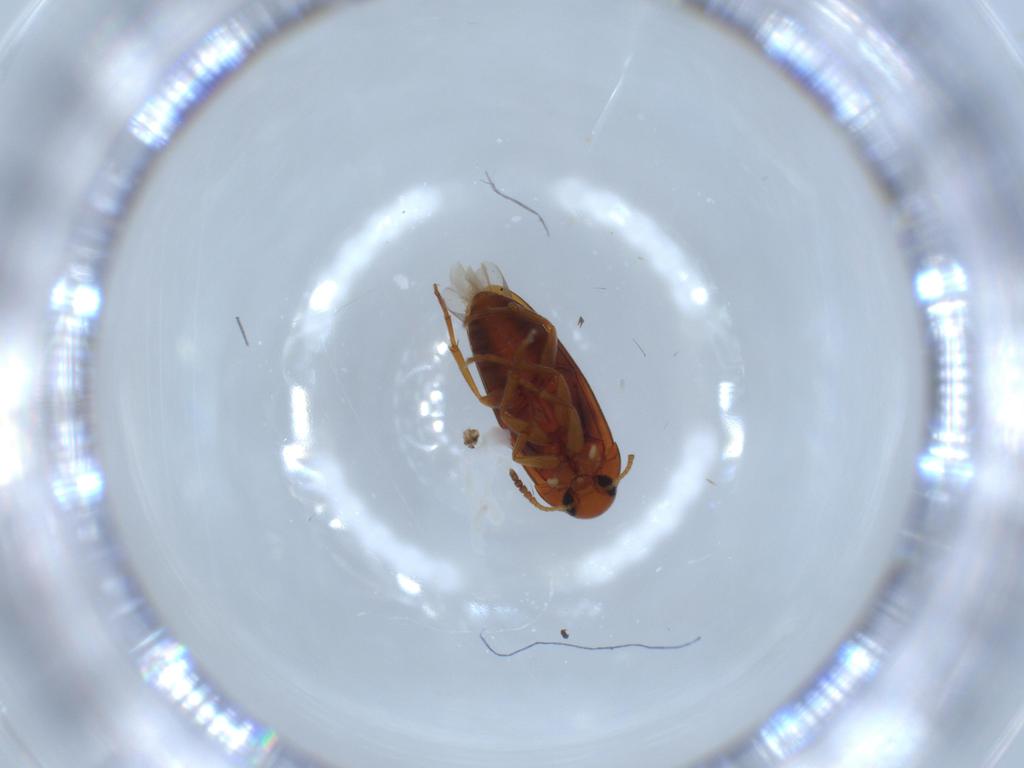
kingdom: Animalia
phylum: Arthropoda
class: Insecta
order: Coleoptera
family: Scraptiidae
